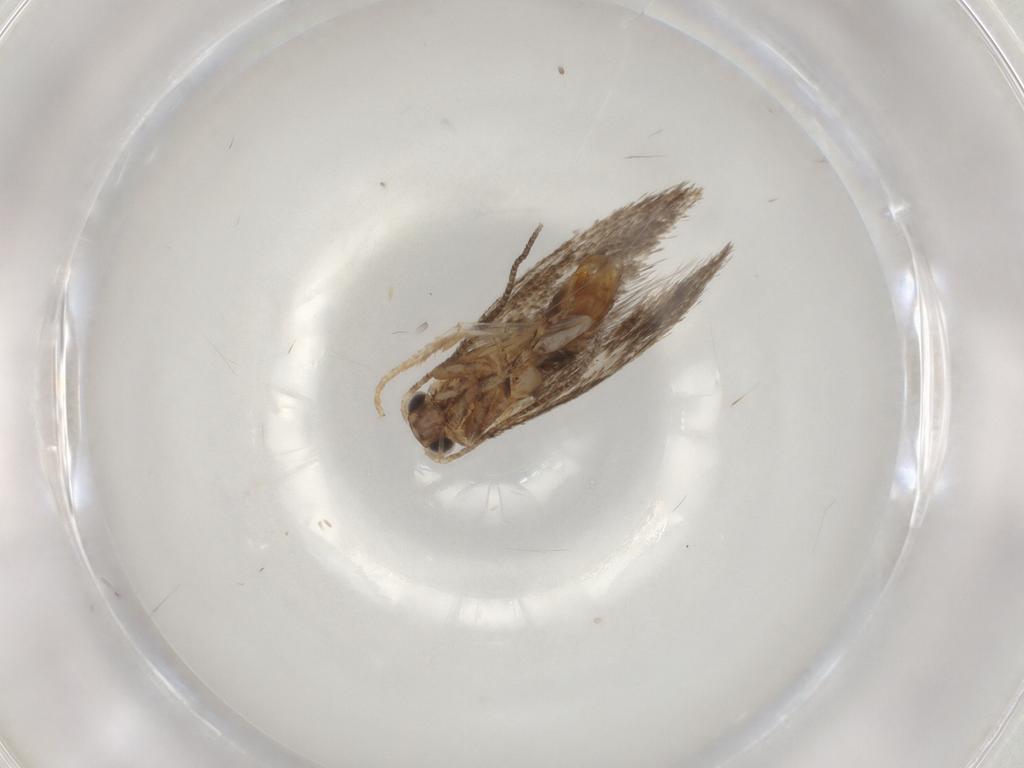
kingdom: Animalia
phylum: Arthropoda
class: Insecta
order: Lepidoptera
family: Tineidae
